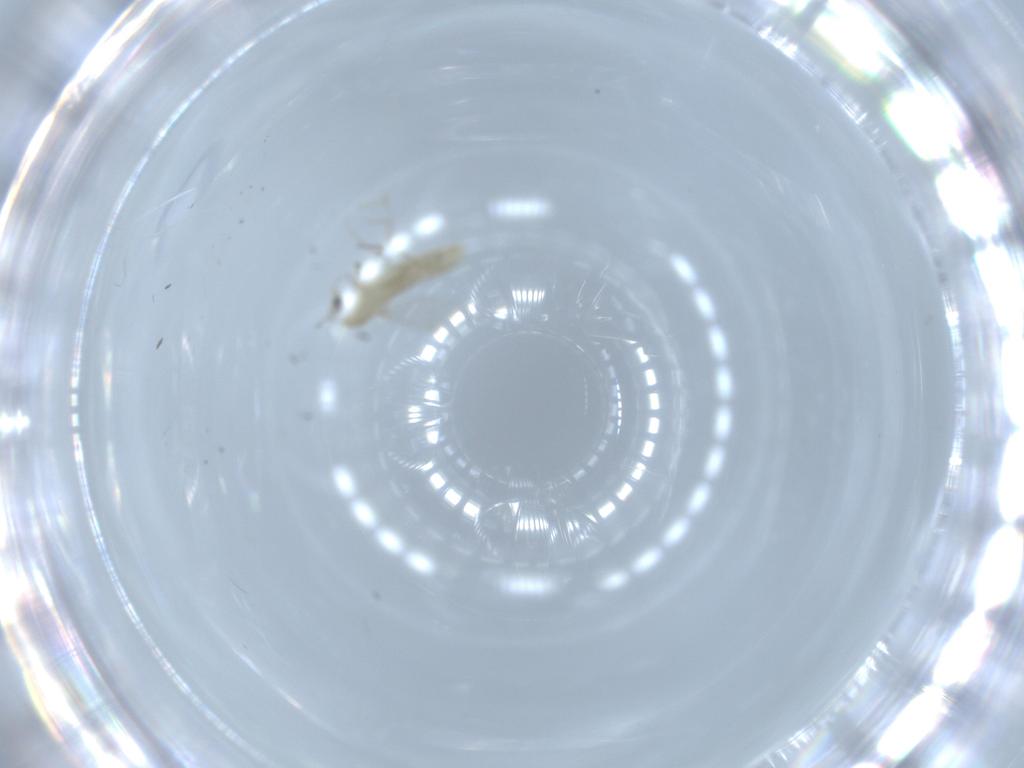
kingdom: Animalia
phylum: Arthropoda
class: Insecta
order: Diptera
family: Chironomidae
